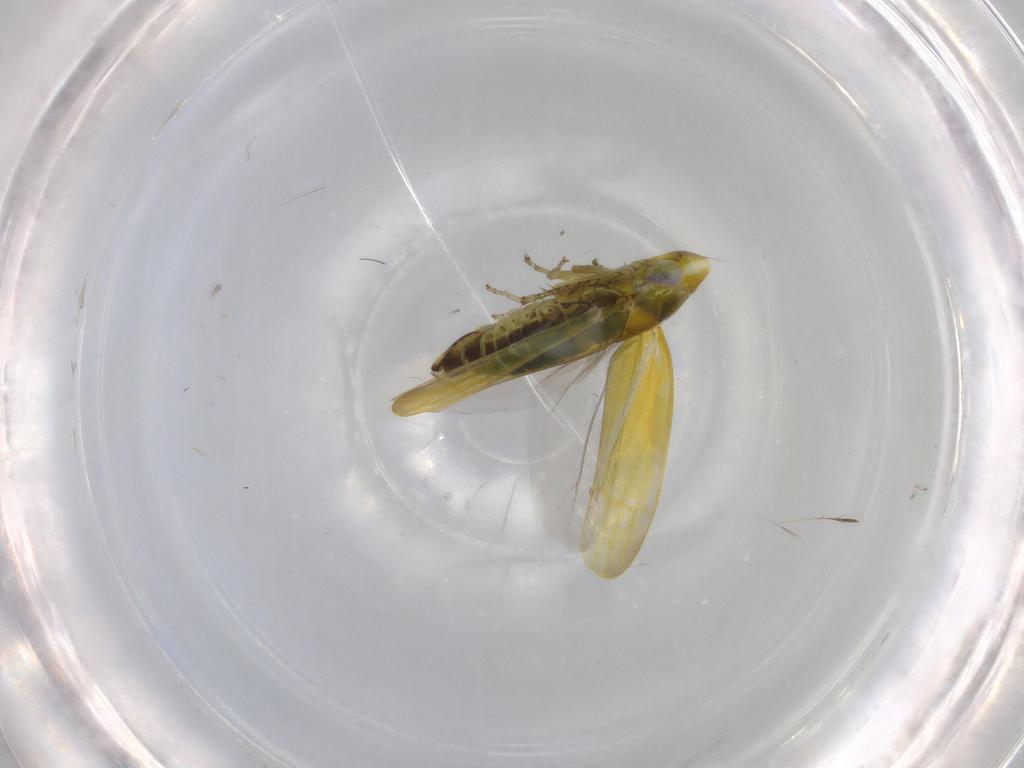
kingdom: Animalia
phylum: Arthropoda
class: Insecta
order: Hemiptera
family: Cicadellidae
